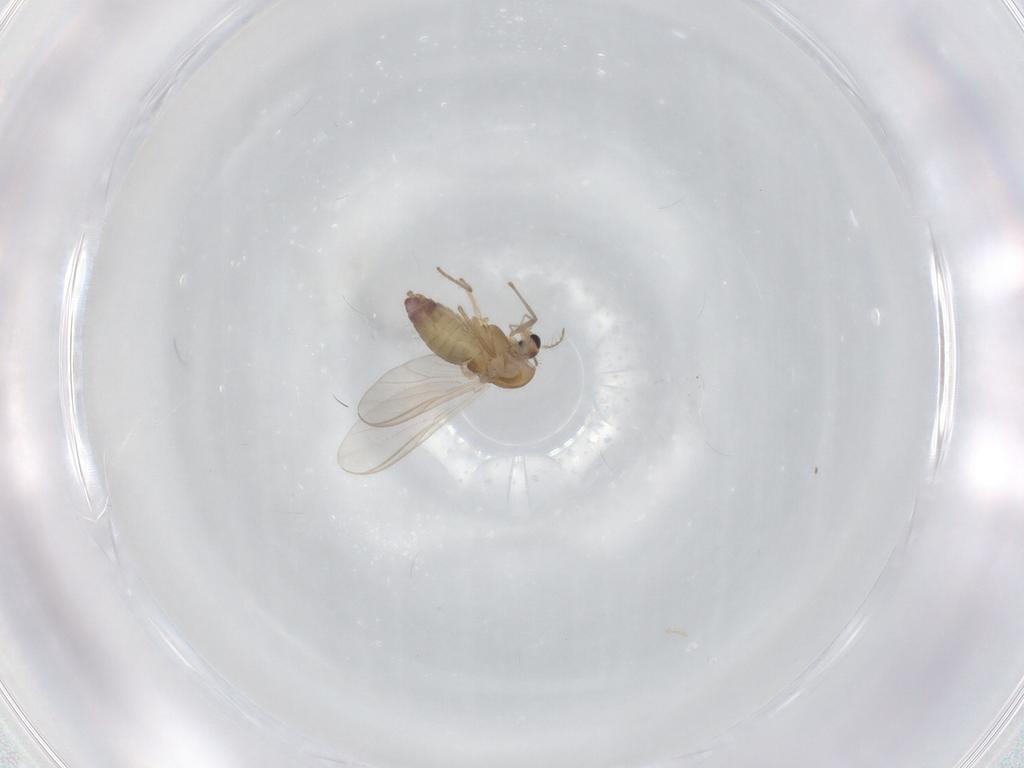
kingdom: Animalia
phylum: Arthropoda
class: Insecta
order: Diptera
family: Chironomidae
